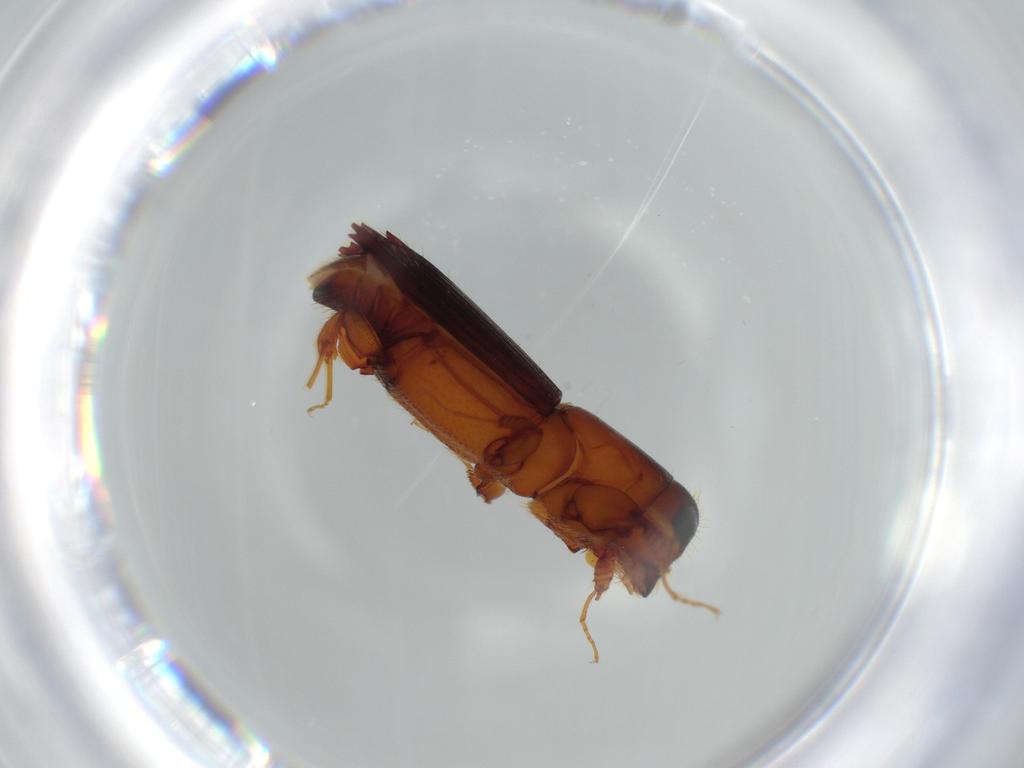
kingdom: Animalia
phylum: Arthropoda
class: Insecta
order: Coleoptera
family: Curculionidae
